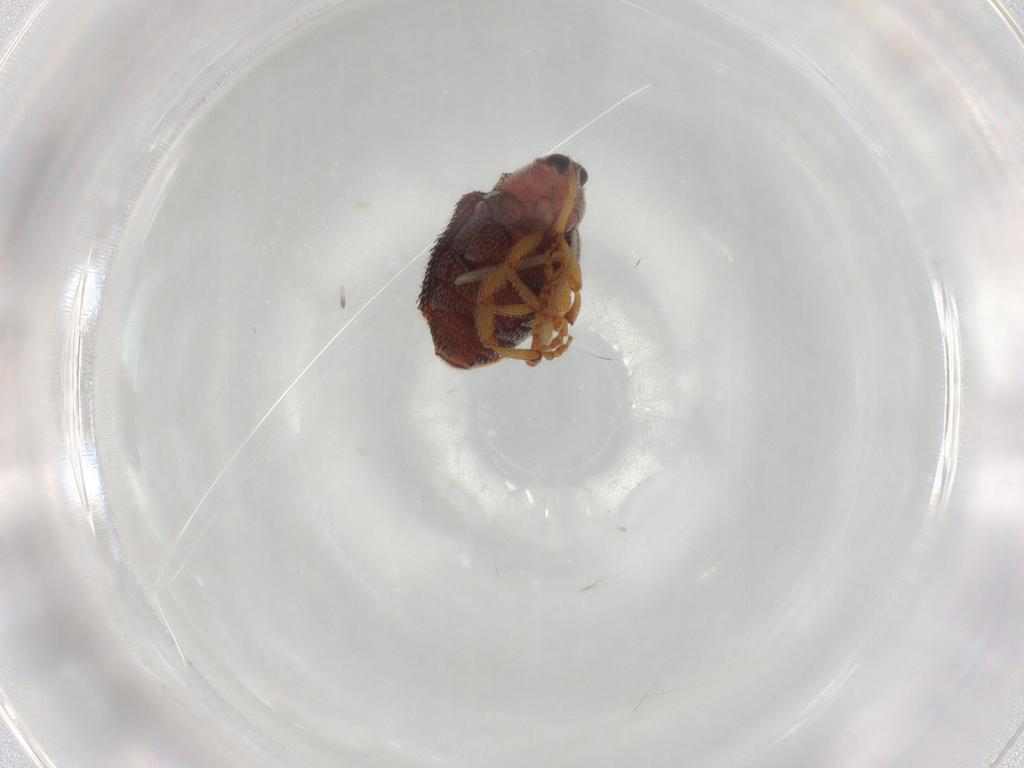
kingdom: Animalia
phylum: Arthropoda
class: Insecta
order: Coleoptera
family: Curculionidae
